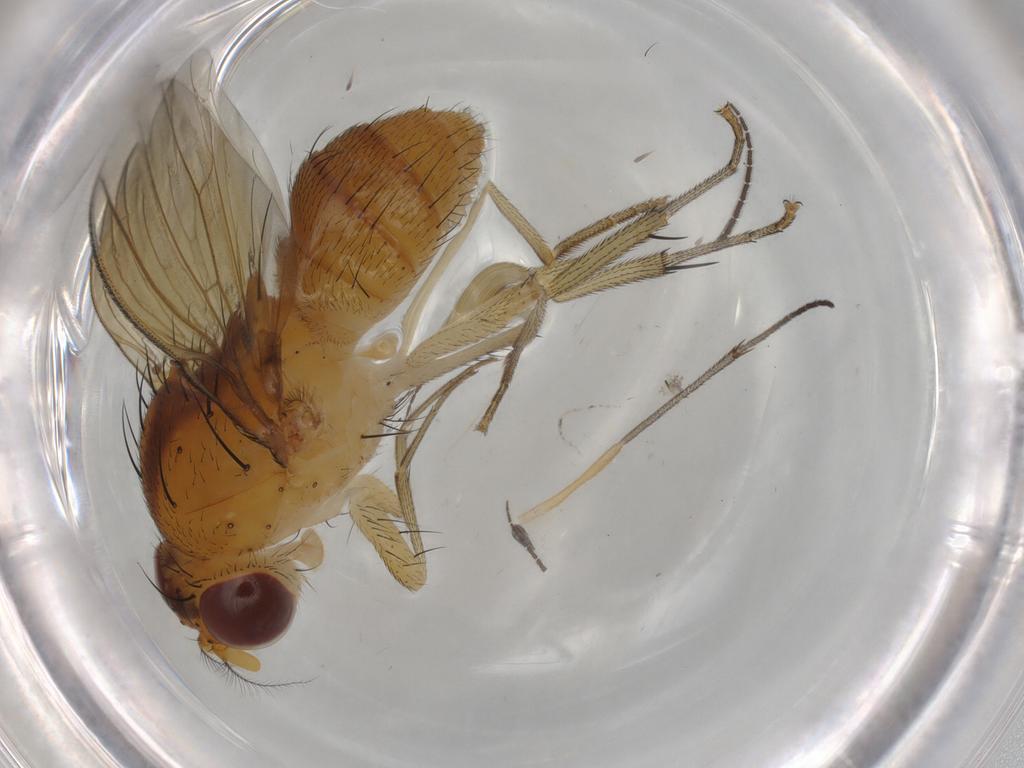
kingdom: Animalia
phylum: Arthropoda
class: Insecta
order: Diptera
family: Sciaridae
